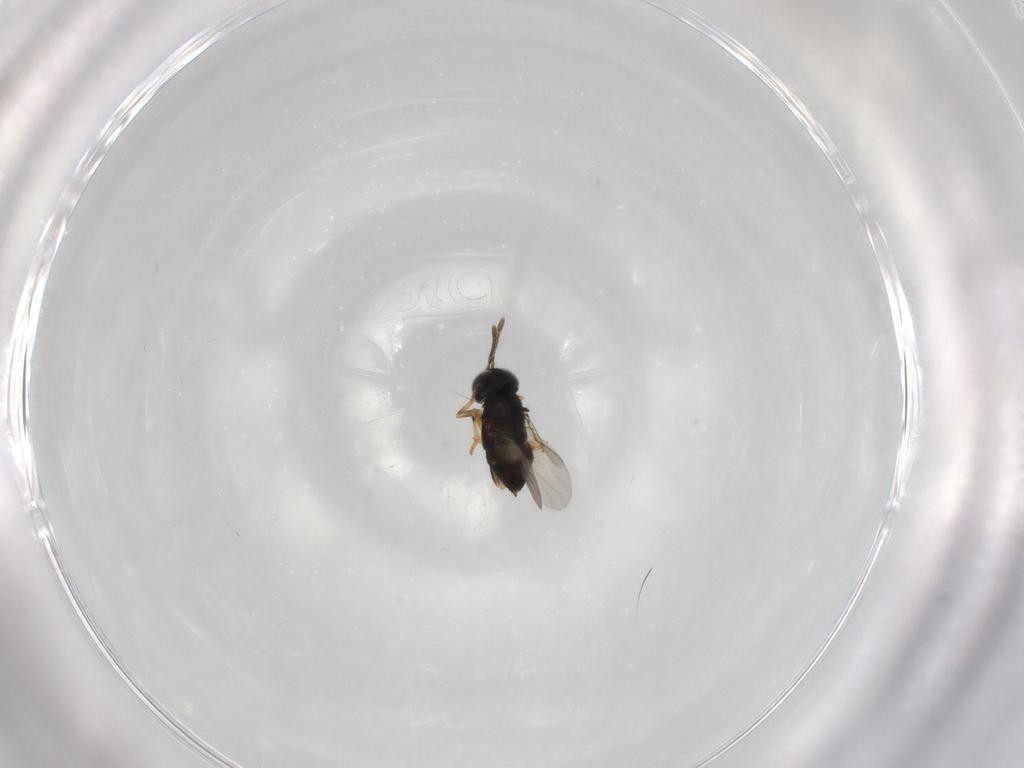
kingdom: Animalia
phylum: Arthropoda
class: Insecta
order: Hymenoptera
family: Encyrtidae
